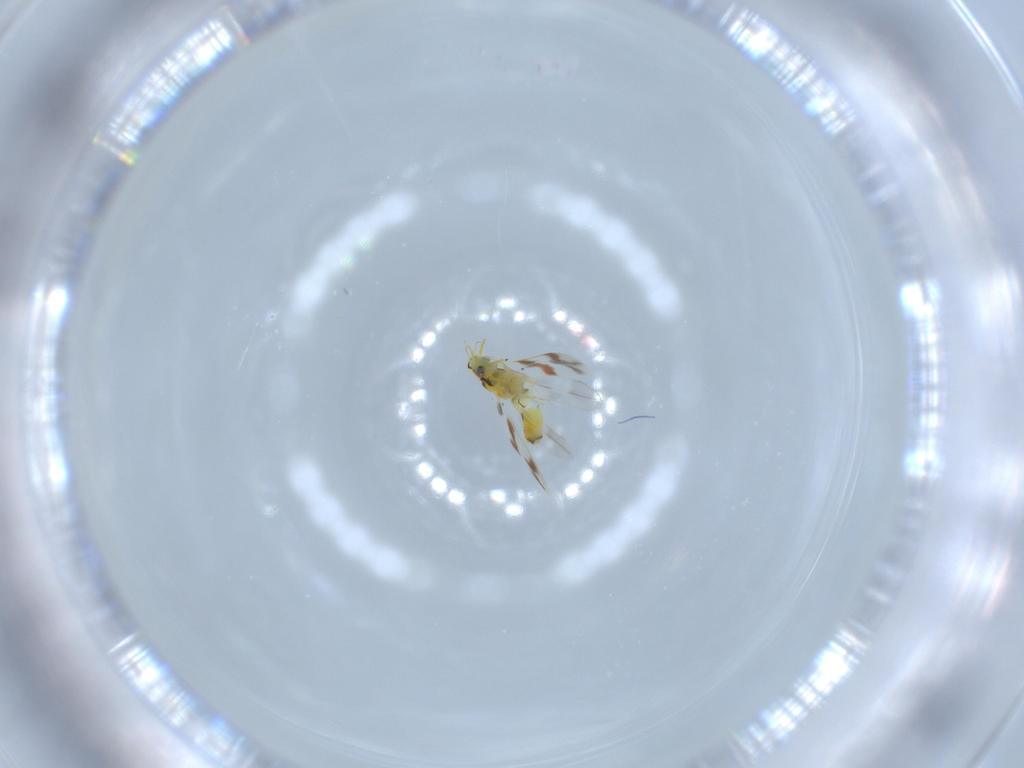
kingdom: Animalia
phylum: Arthropoda
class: Insecta
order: Hemiptera
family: Aleyrodidae
